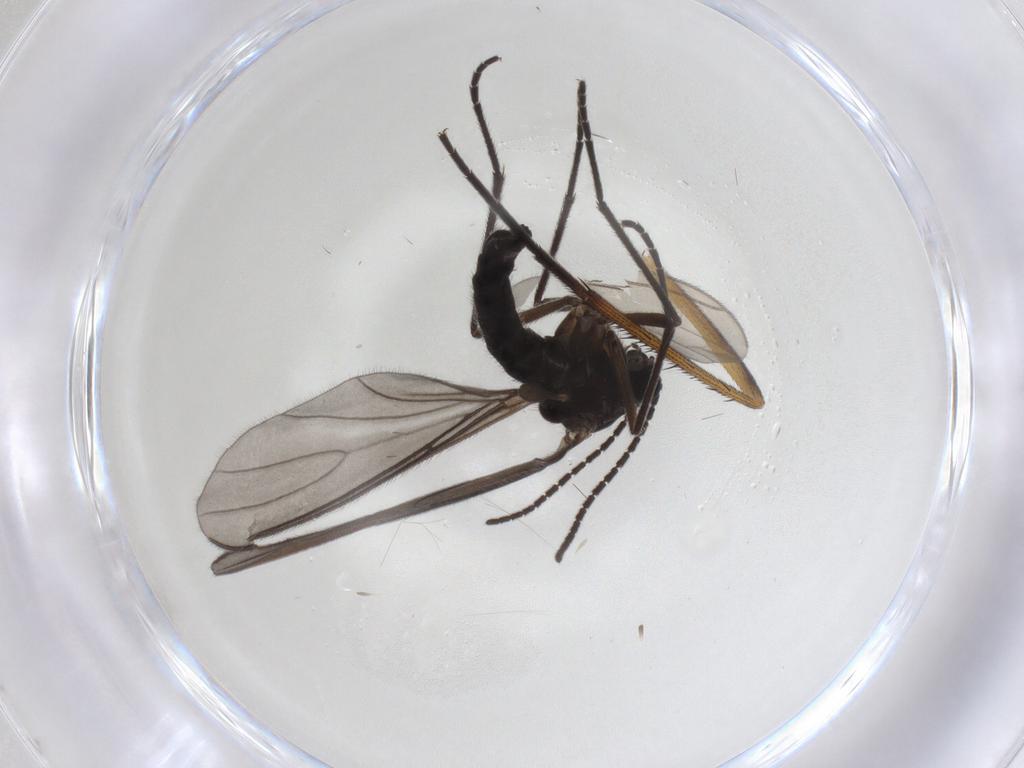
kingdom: Animalia
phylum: Arthropoda
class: Insecta
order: Diptera
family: Sciaridae
